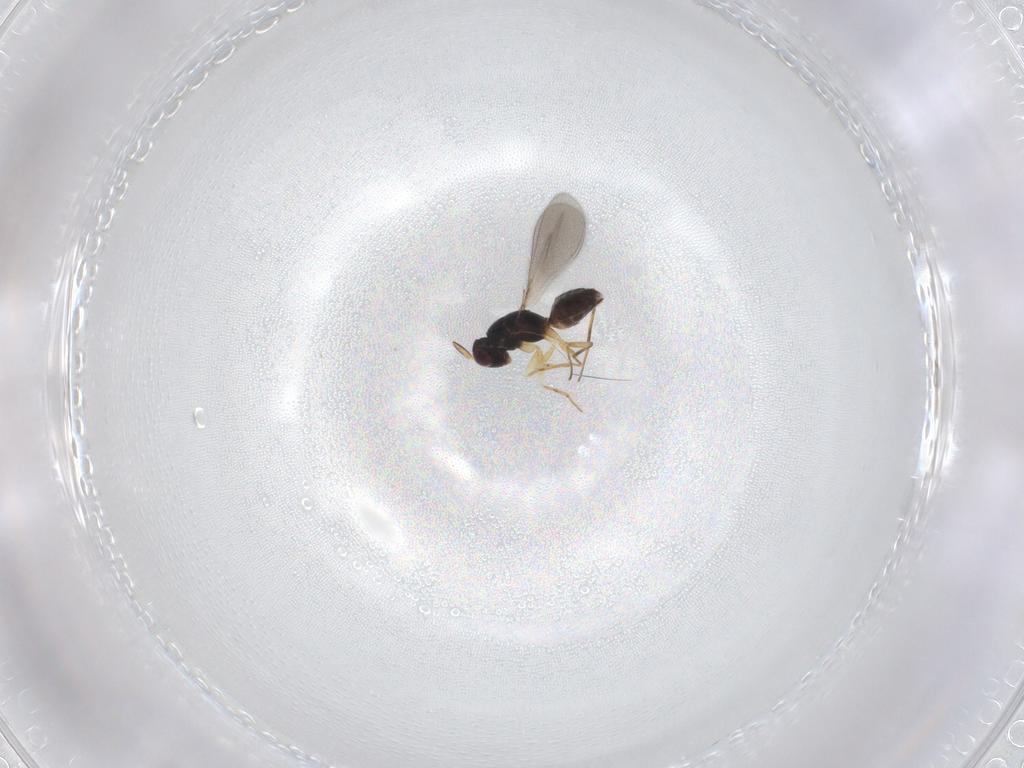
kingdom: Animalia
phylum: Arthropoda
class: Insecta
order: Hymenoptera
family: Mymaridae
